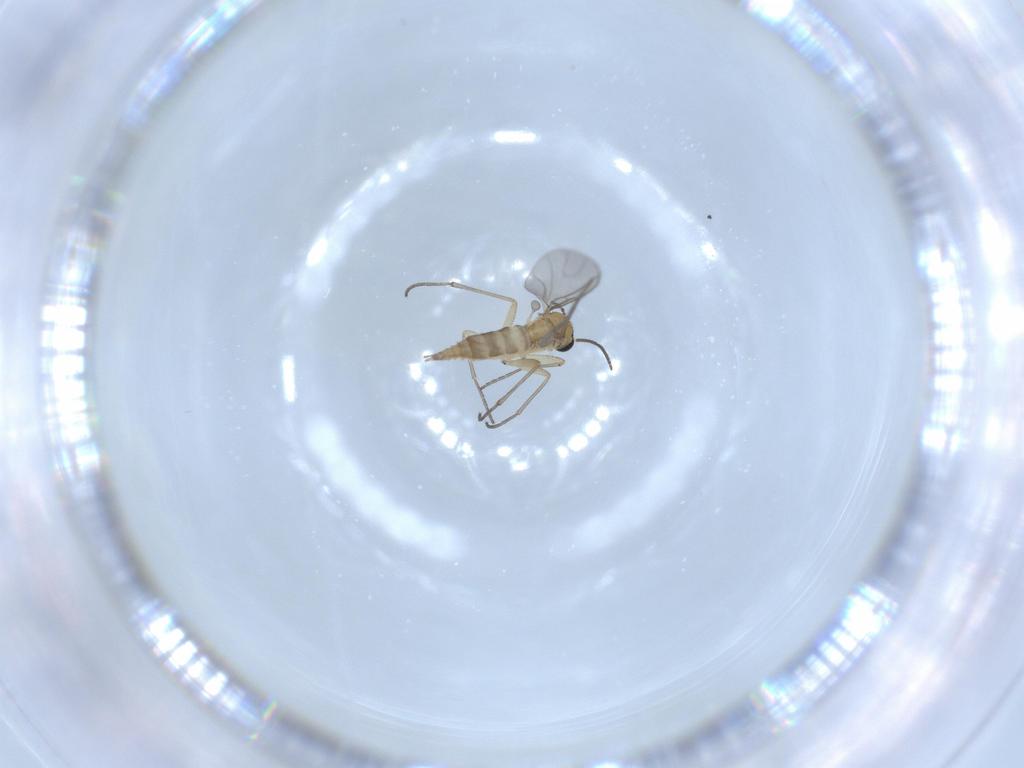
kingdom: Animalia
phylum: Arthropoda
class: Insecta
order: Diptera
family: Sciaridae
